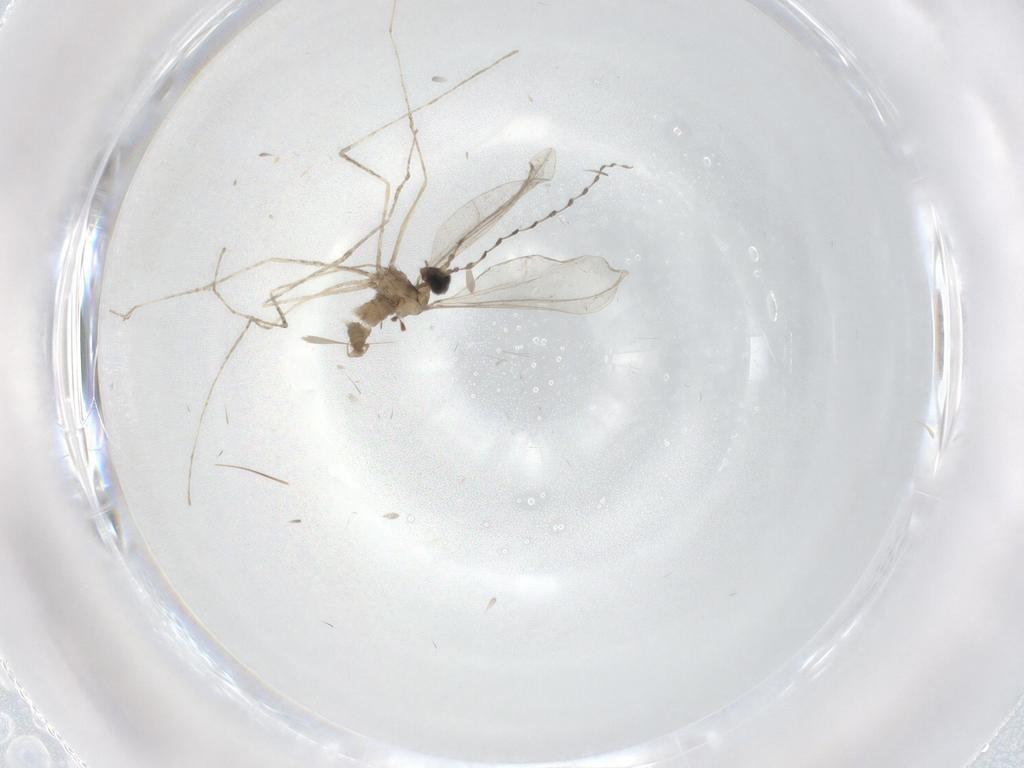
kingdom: Animalia
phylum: Arthropoda
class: Insecta
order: Diptera
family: Cecidomyiidae
